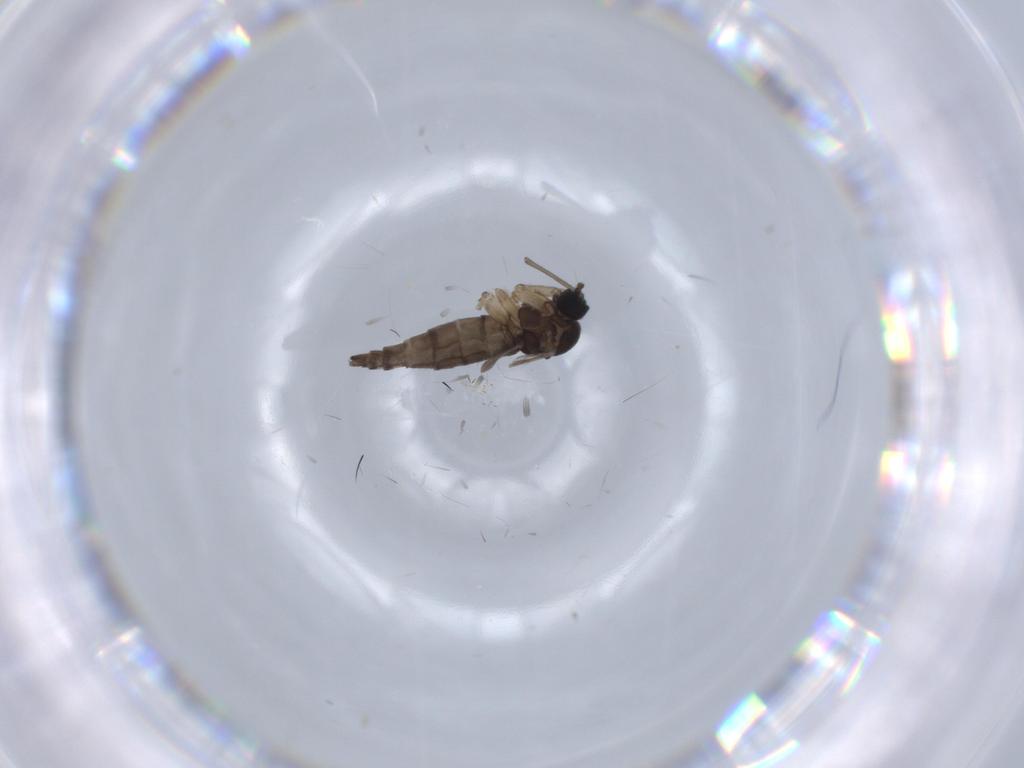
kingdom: Animalia
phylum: Arthropoda
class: Insecta
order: Diptera
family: Sciaridae
